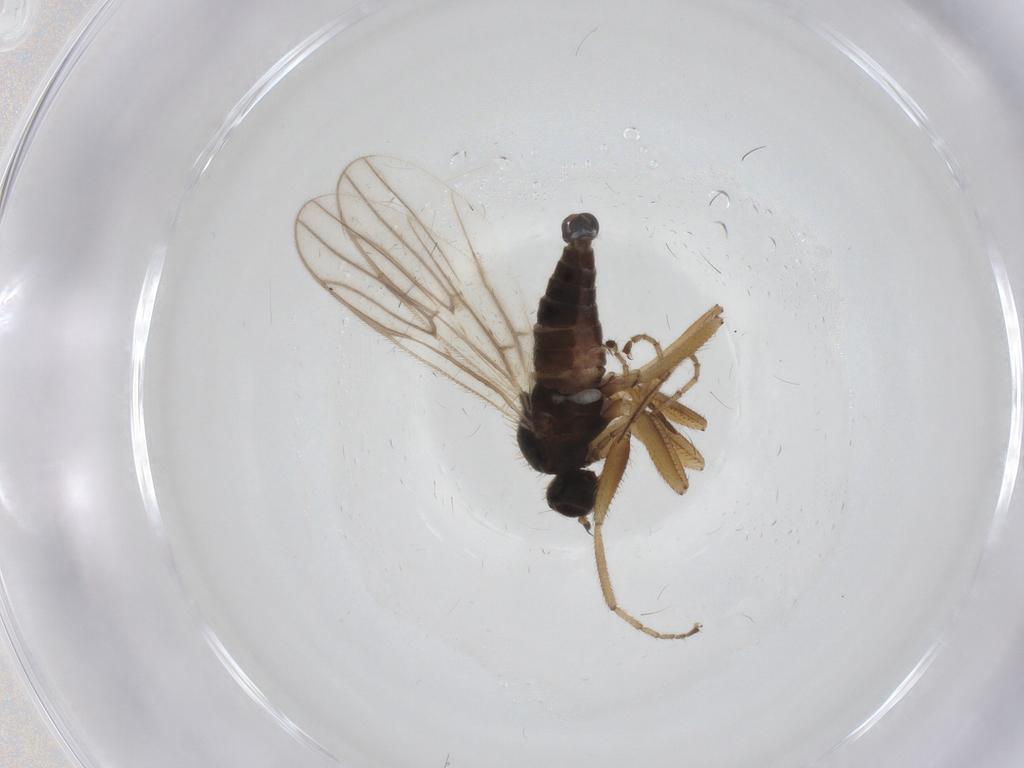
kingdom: Animalia
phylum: Arthropoda
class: Insecta
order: Diptera
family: Hybotidae
